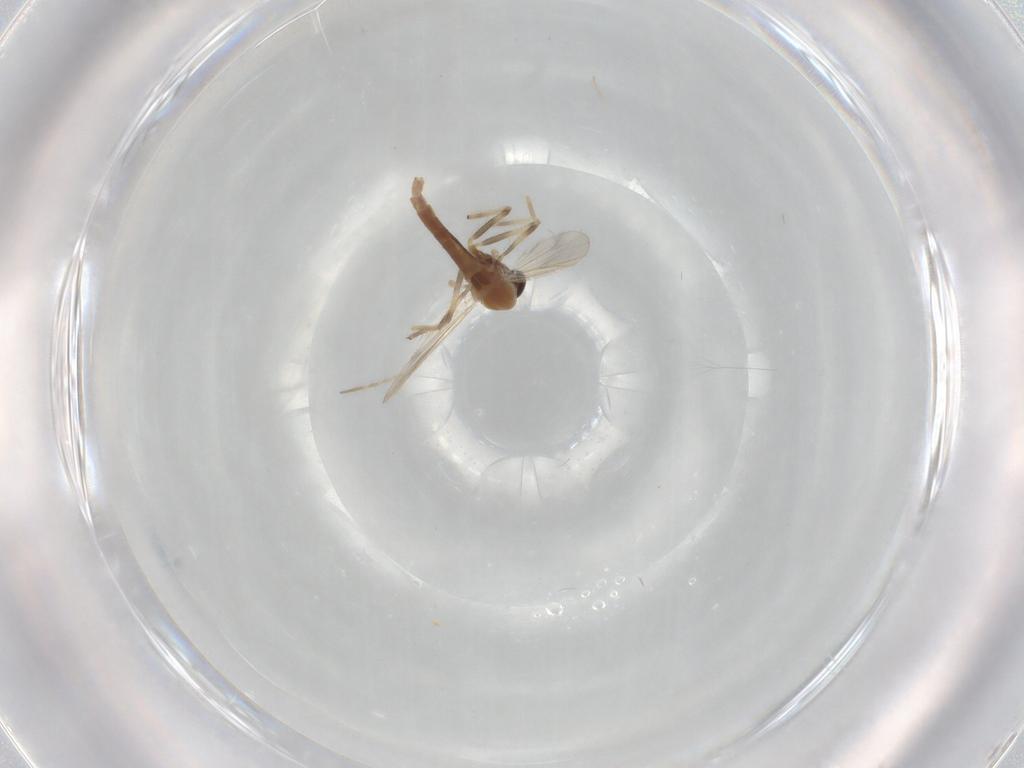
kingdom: Animalia
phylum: Arthropoda
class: Insecta
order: Diptera
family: Chironomidae
